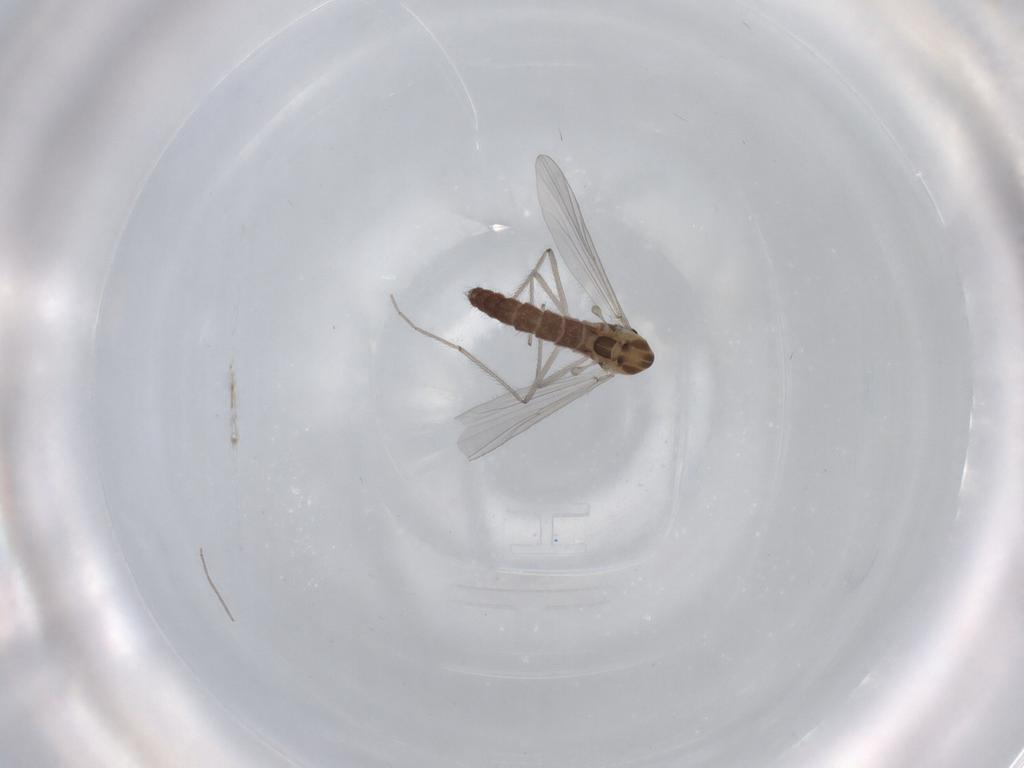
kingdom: Animalia
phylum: Arthropoda
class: Insecta
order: Diptera
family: Chironomidae
